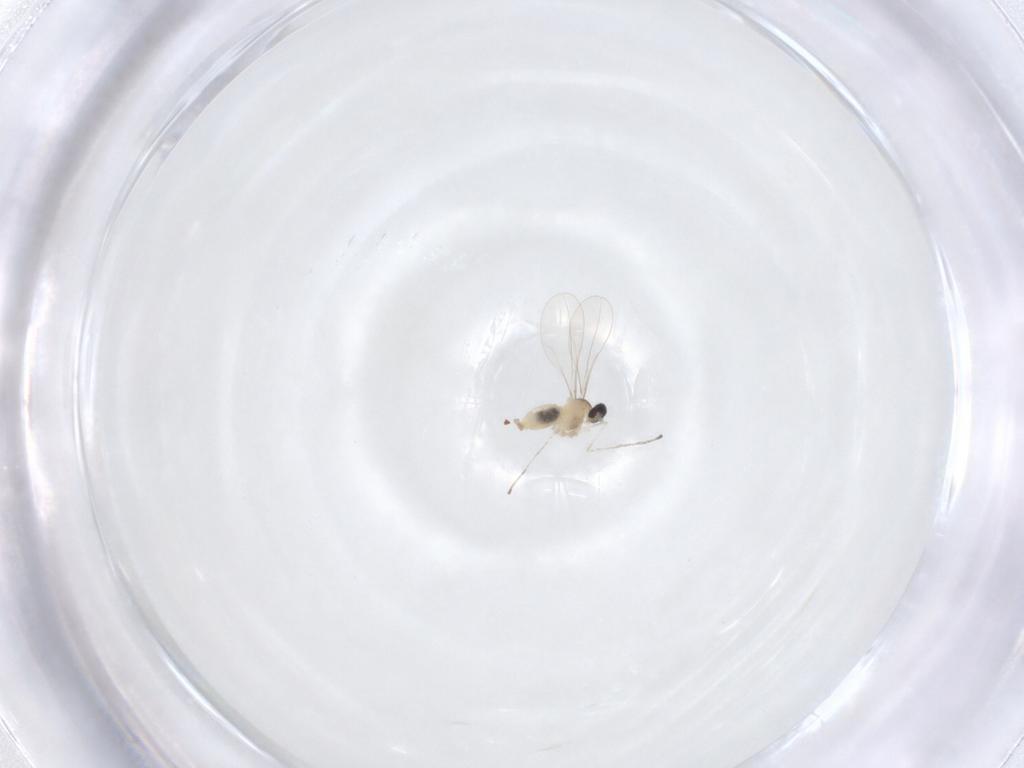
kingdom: Animalia
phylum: Arthropoda
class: Insecta
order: Diptera
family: Cecidomyiidae
